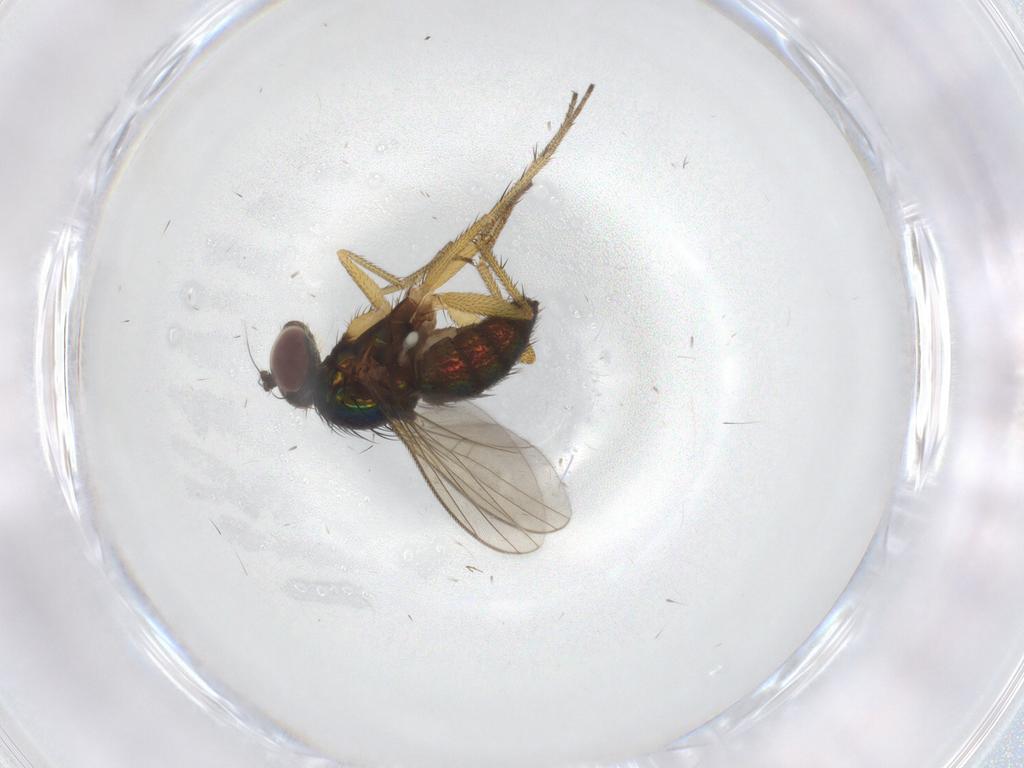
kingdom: Animalia
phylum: Arthropoda
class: Insecta
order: Diptera
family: Dolichopodidae
